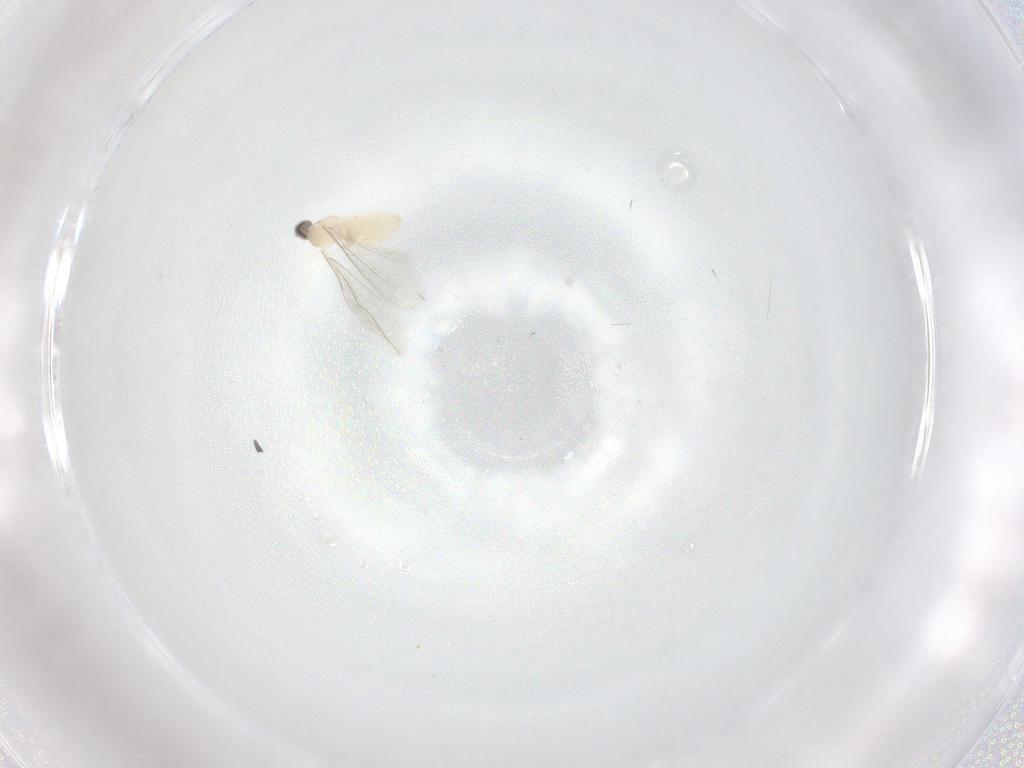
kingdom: Animalia
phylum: Arthropoda
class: Insecta
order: Diptera
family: Cecidomyiidae
